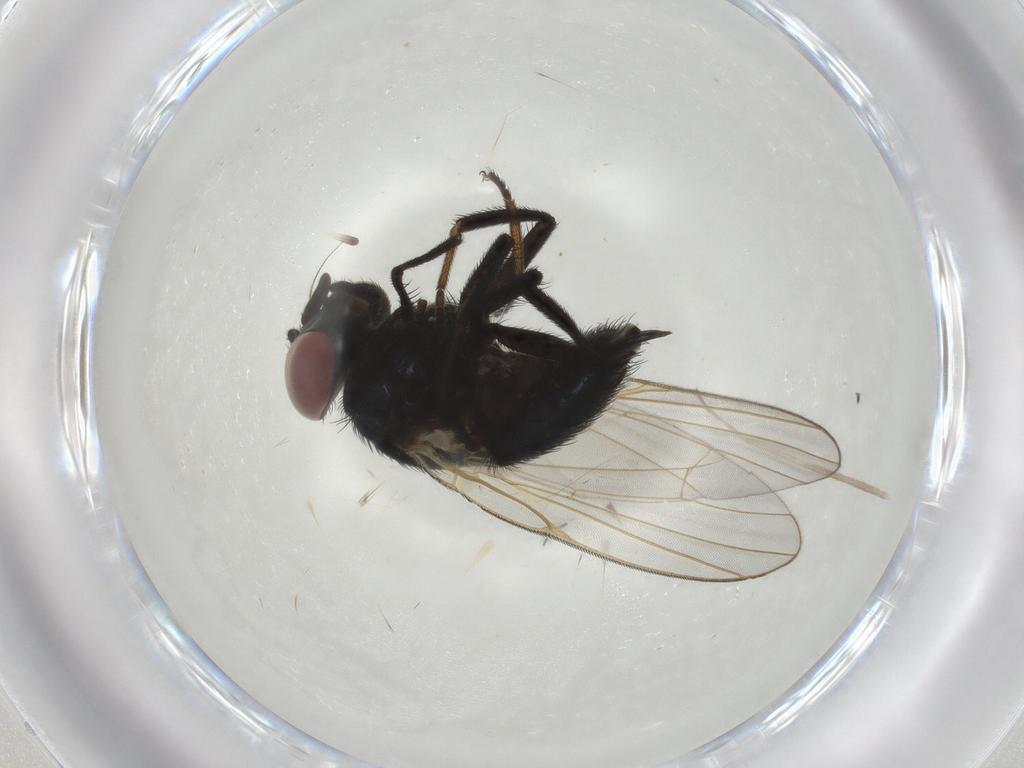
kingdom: Animalia
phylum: Arthropoda
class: Insecta
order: Diptera
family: Lonchaeidae
